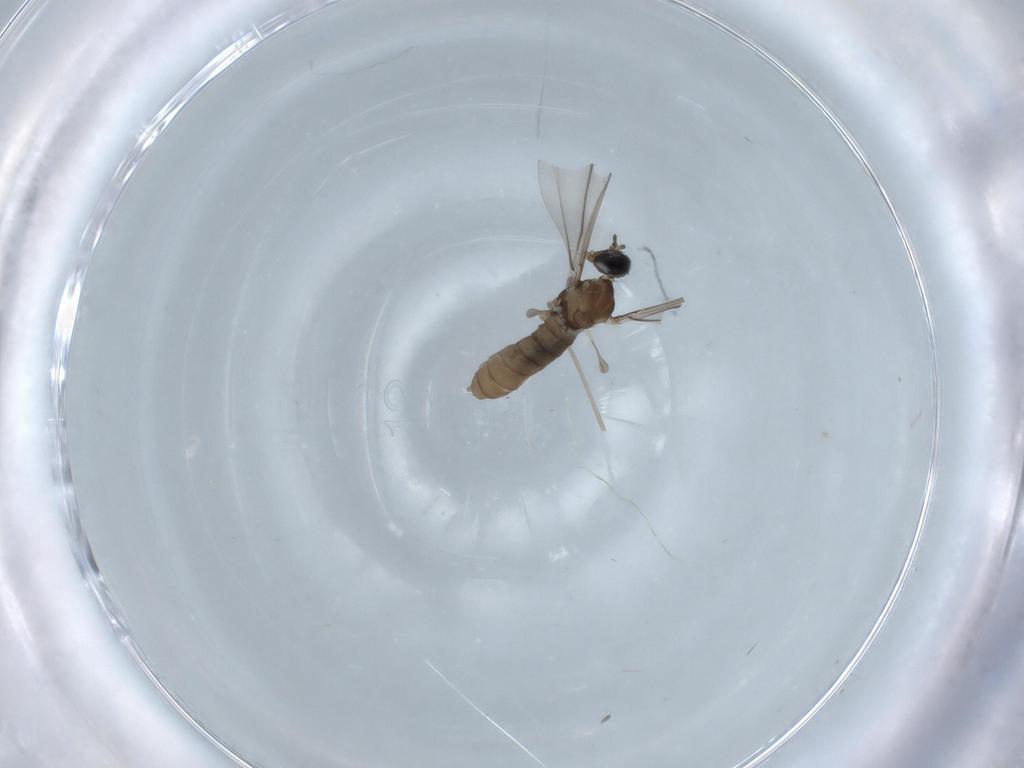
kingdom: Animalia
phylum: Arthropoda
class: Insecta
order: Diptera
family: Cecidomyiidae
